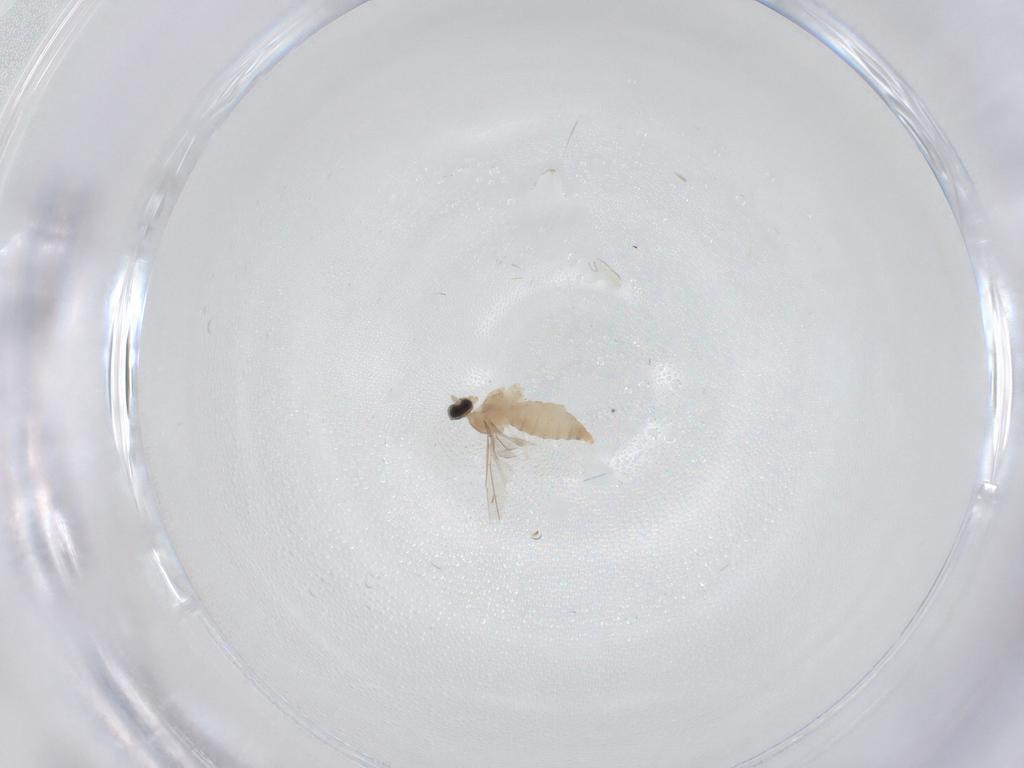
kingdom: Animalia
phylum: Arthropoda
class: Insecta
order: Diptera
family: Cecidomyiidae
